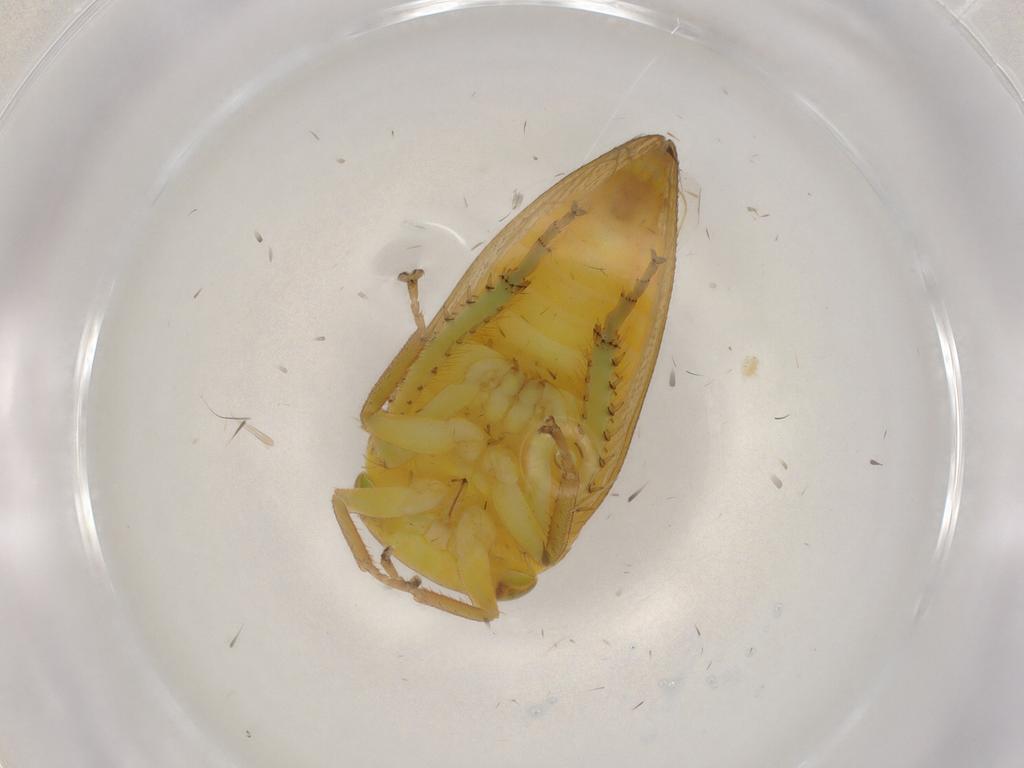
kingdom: Animalia
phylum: Arthropoda
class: Insecta
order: Hemiptera
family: Cicadellidae
